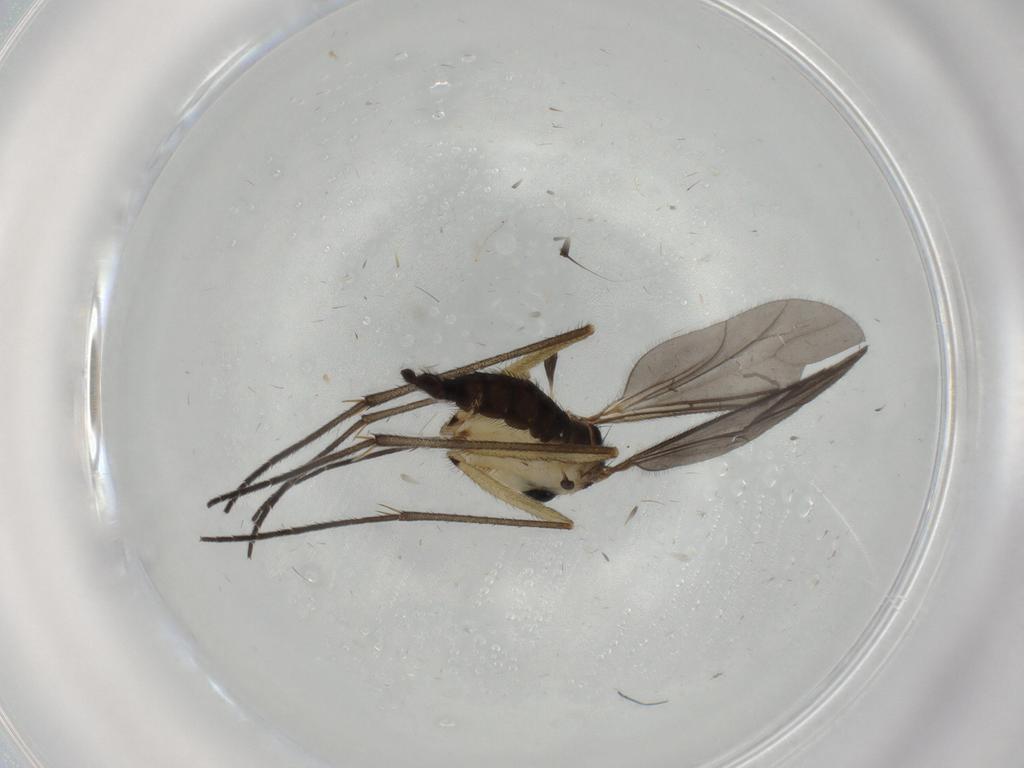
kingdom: Animalia
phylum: Arthropoda
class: Insecta
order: Diptera
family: Sciaridae
